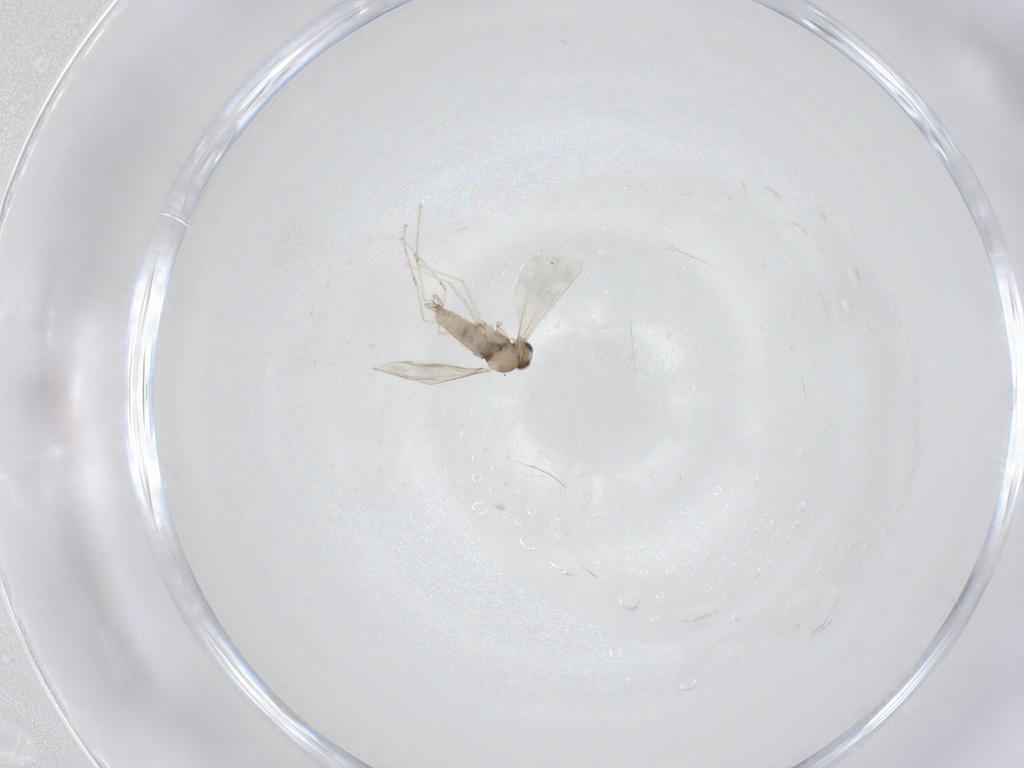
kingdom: Animalia
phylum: Arthropoda
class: Insecta
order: Diptera
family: Cecidomyiidae
